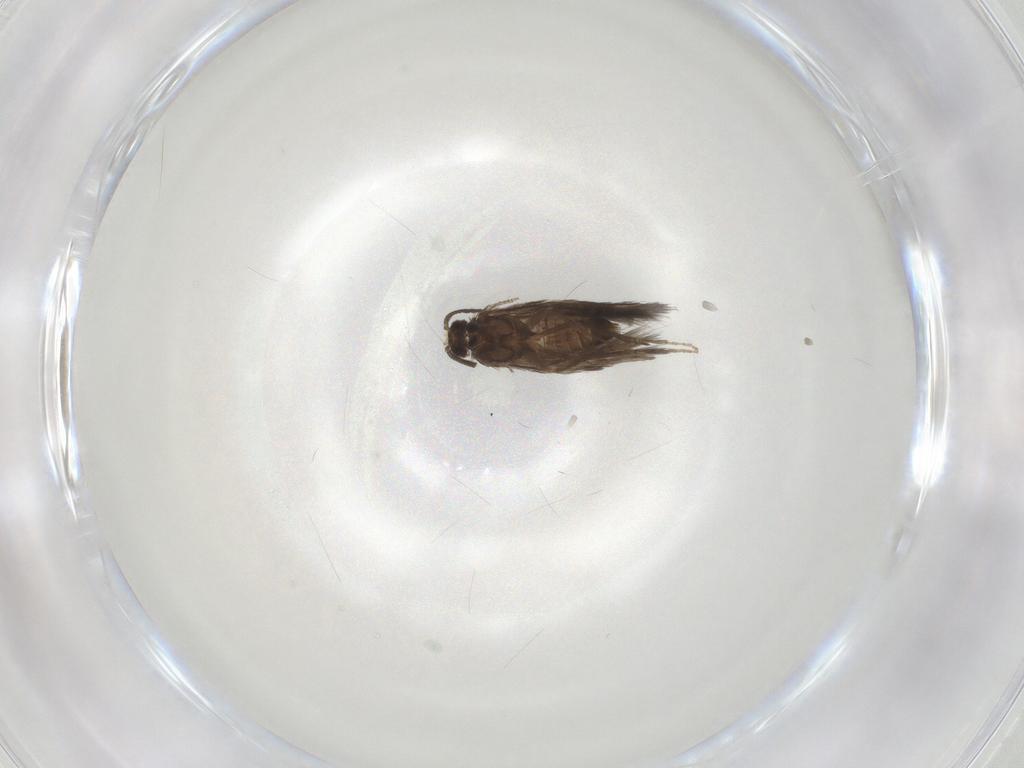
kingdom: Animalia
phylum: Arthropoda
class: Insecta
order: Trichoptera
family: Hydroptilidae
